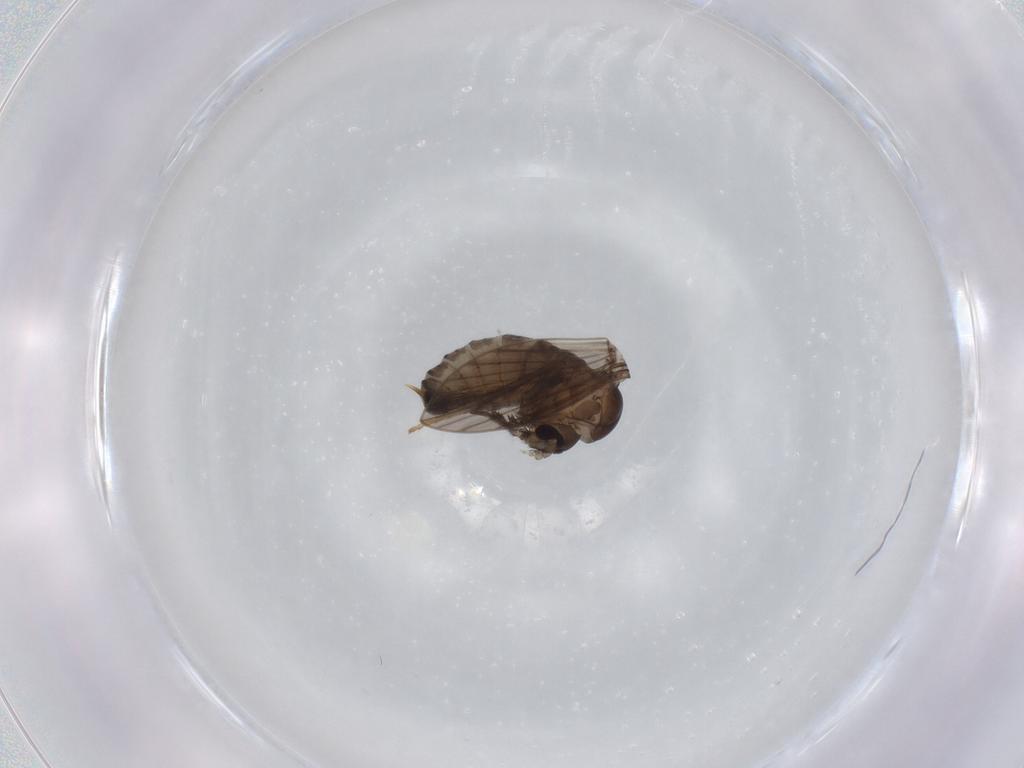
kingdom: Animalia
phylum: Arthropoda
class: Insecta
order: Diptera
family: Psychodidae
